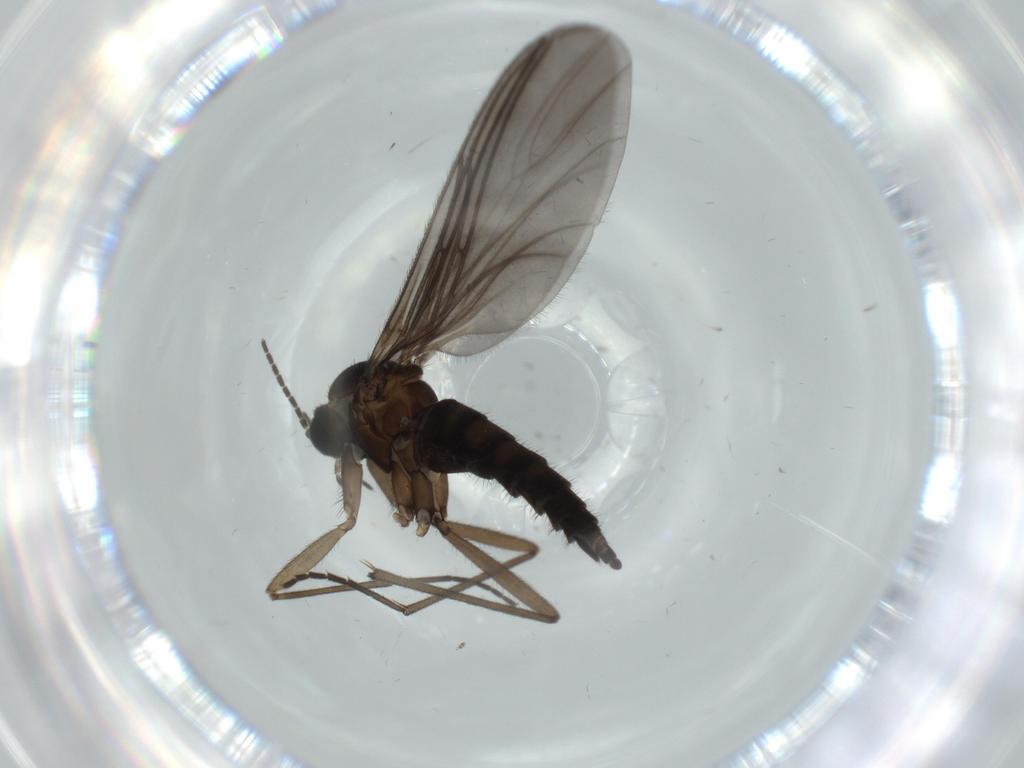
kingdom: Animalia
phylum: Arthropoda
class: Insecta
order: Diptera
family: Sciaridae
